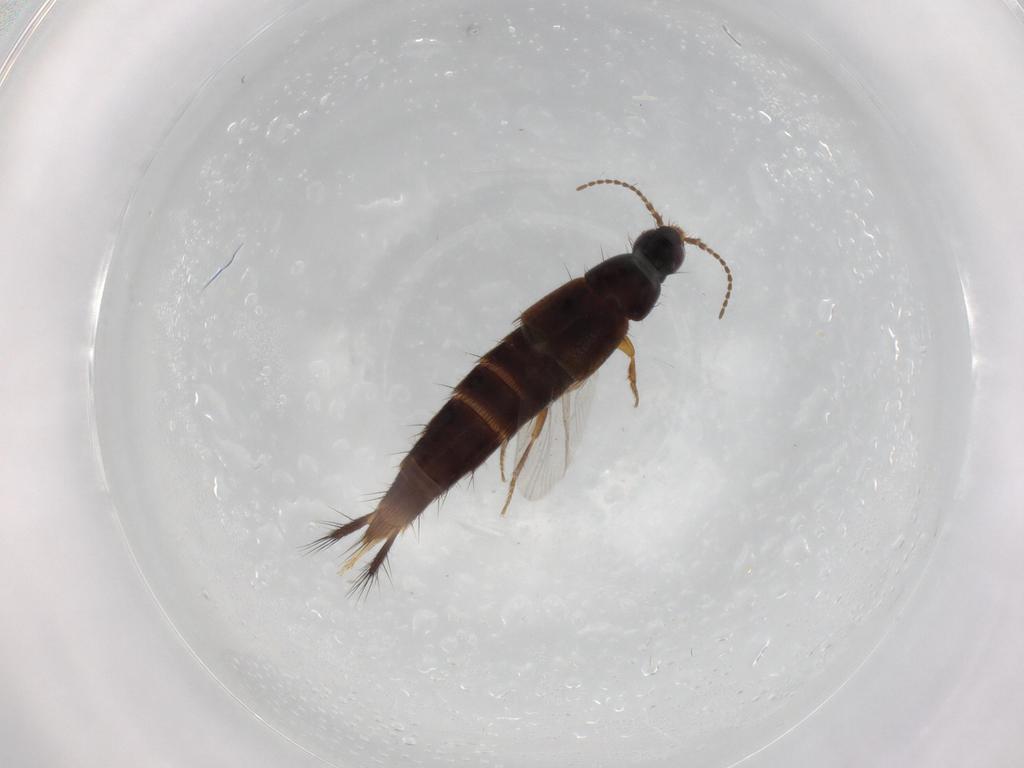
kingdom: Animalia
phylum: Arthropoda
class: Insecta
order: Coleoptera
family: Staphylinidae
